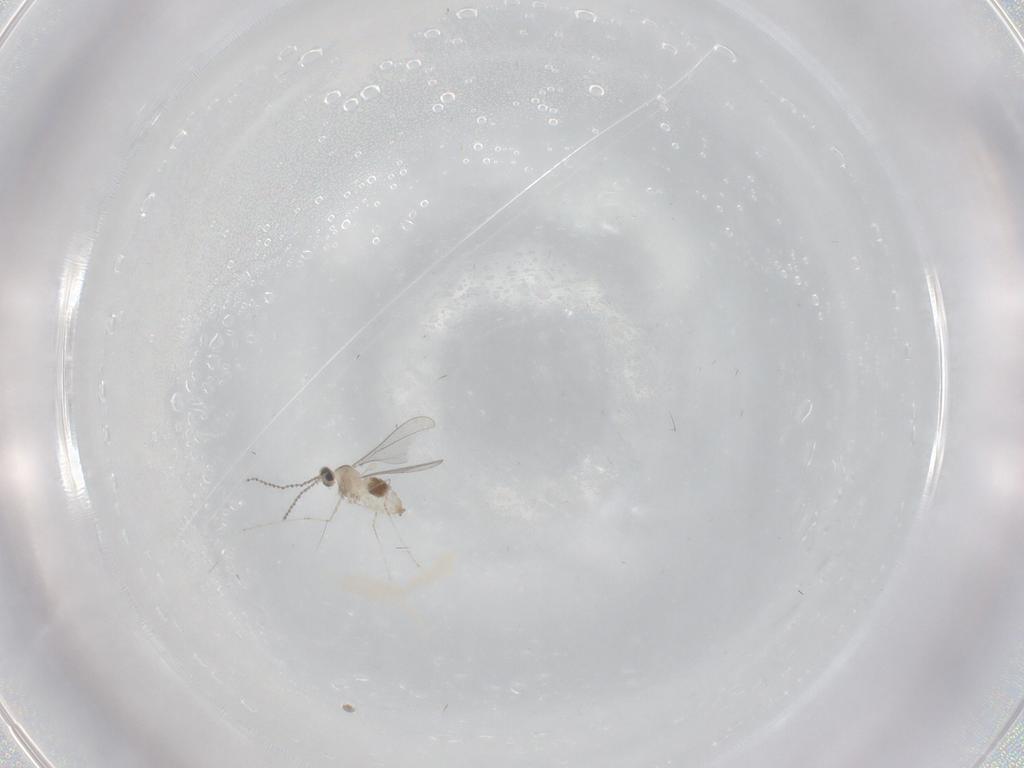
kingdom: Animalia
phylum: Arthropoda
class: Insecta
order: Diptera
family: Cecidomyiidae
